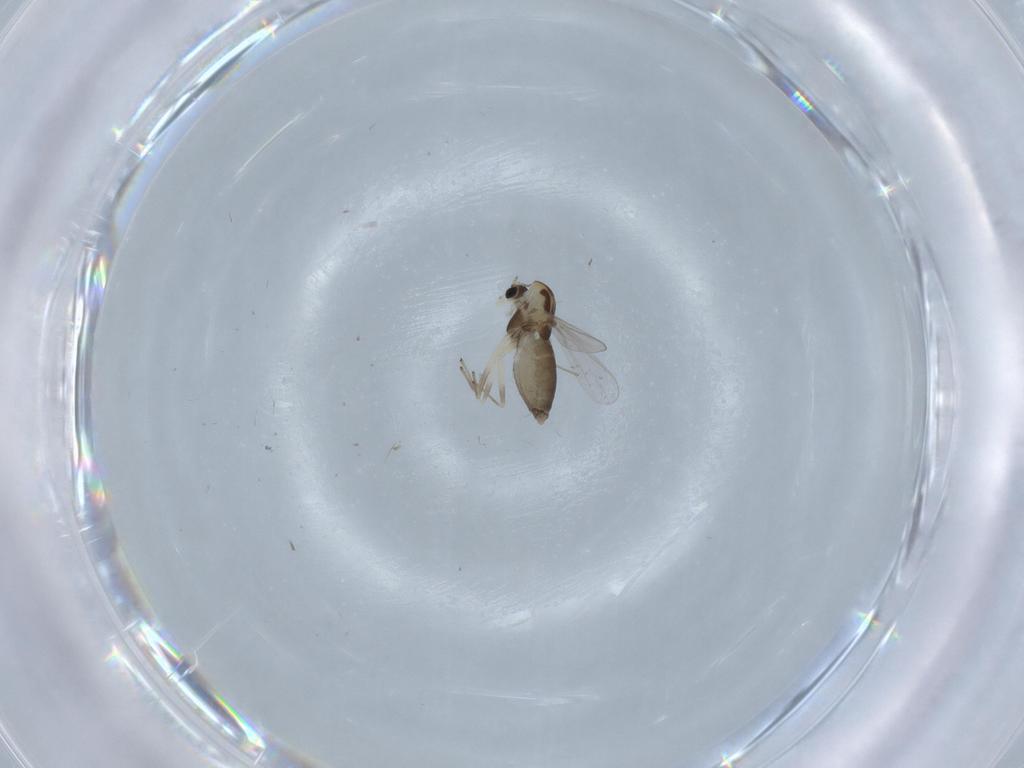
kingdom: Animalia
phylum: Arthropoda
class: Insecta
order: Diptera
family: Chironomidae
